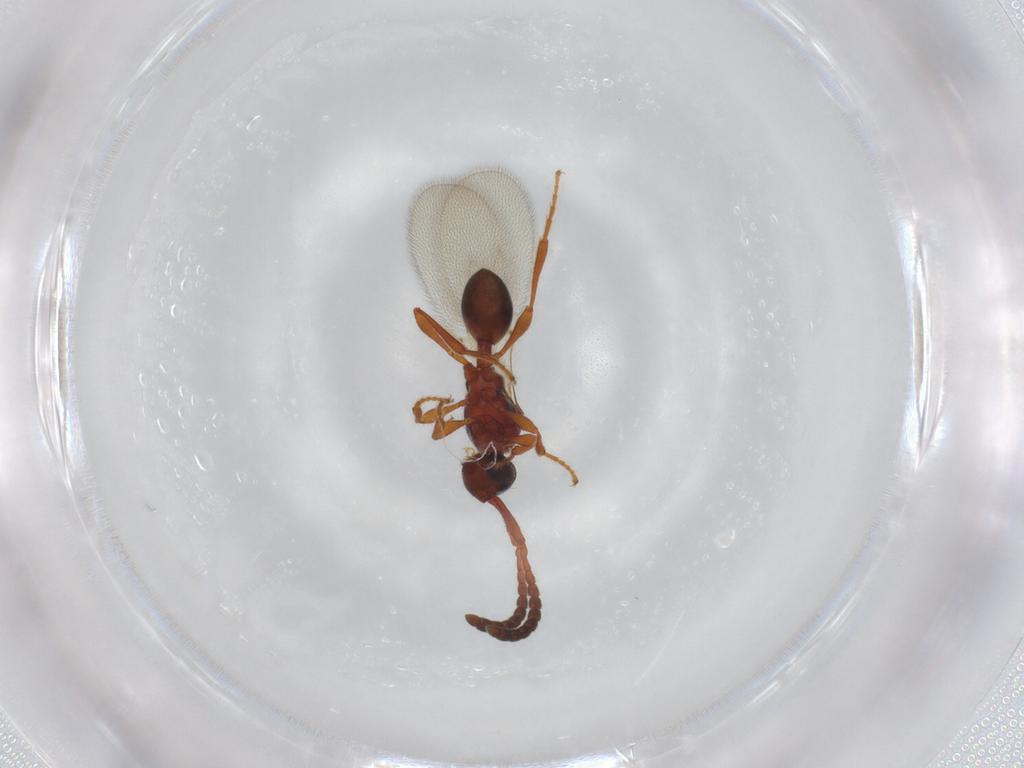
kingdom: Animalia
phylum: Arthropoda
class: Insecta
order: Hymenoptera
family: Diapriidae
